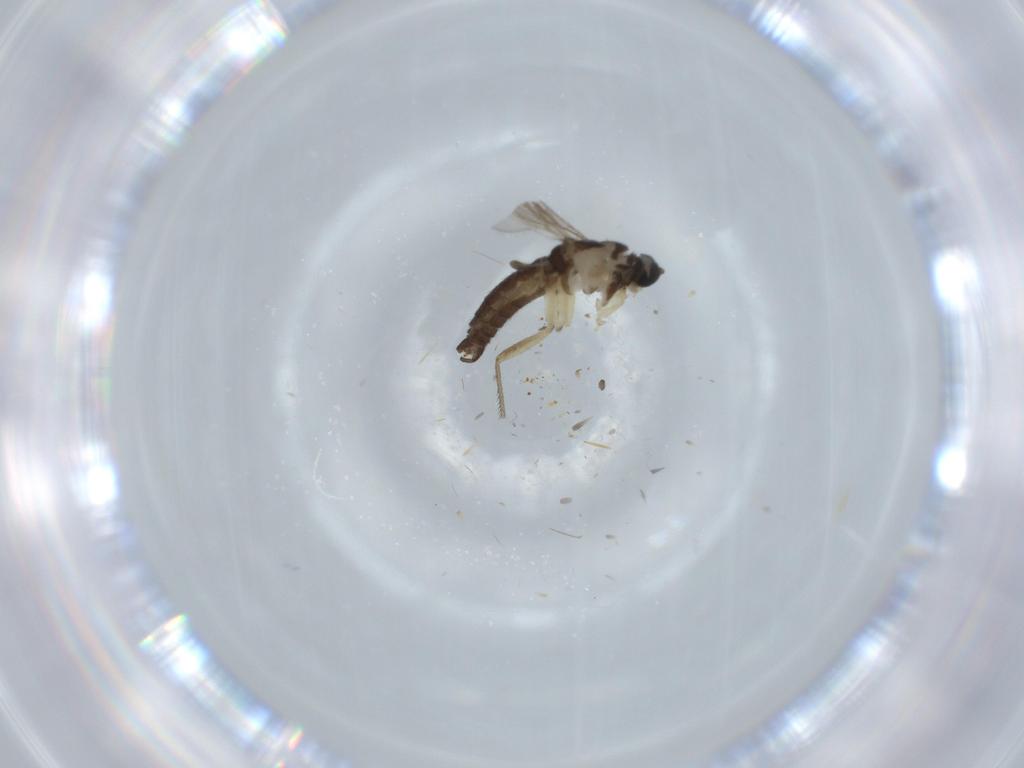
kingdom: Animalia
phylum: Arthropoda
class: Insecta
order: Diptera
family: Sciaridae
